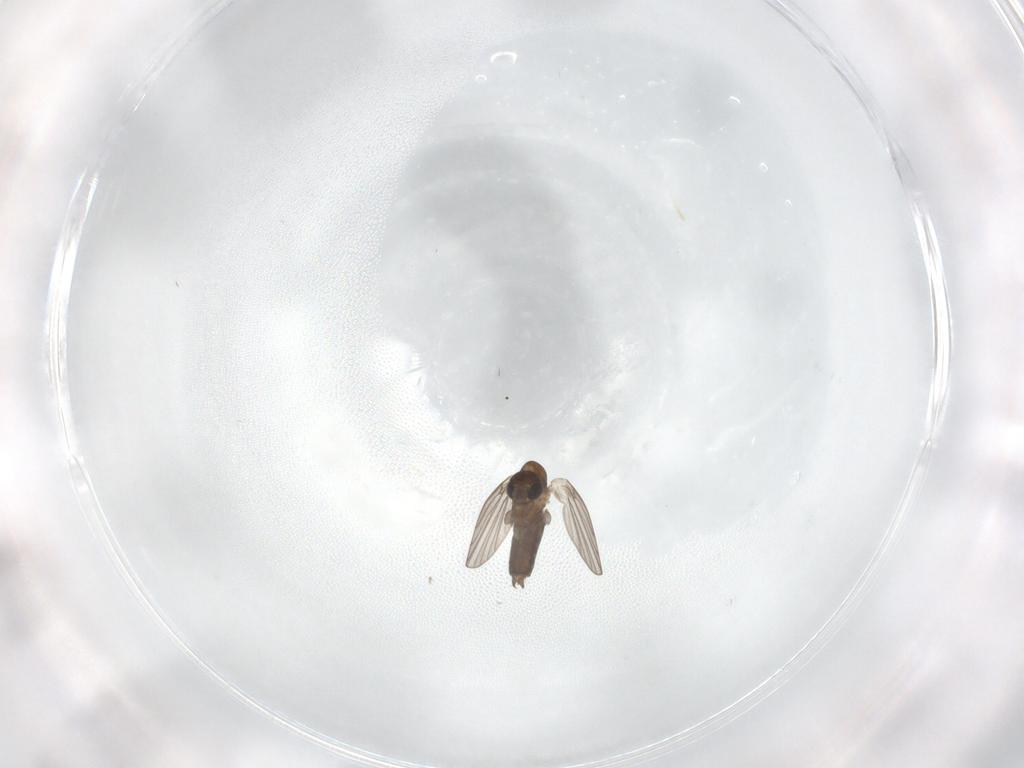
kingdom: Animalia
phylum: Arthropoda
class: Insecta
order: Diptera
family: Psychodidae
